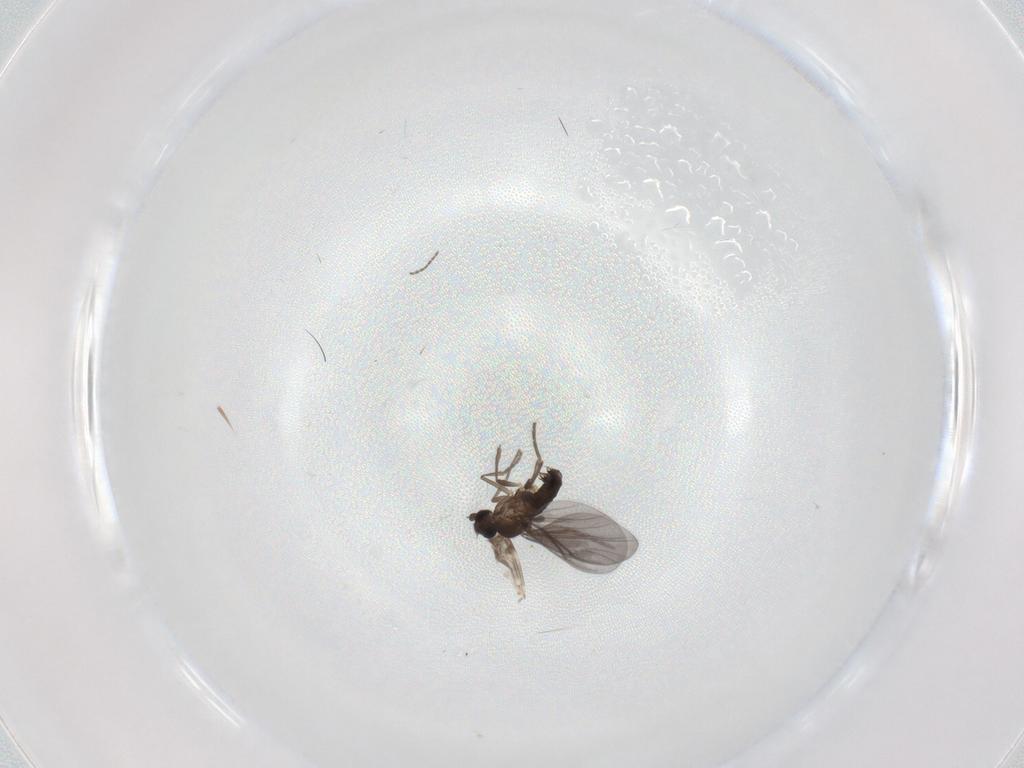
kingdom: Animalia
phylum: Arthropoda
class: Insecta
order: Diptera
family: Phoridae
